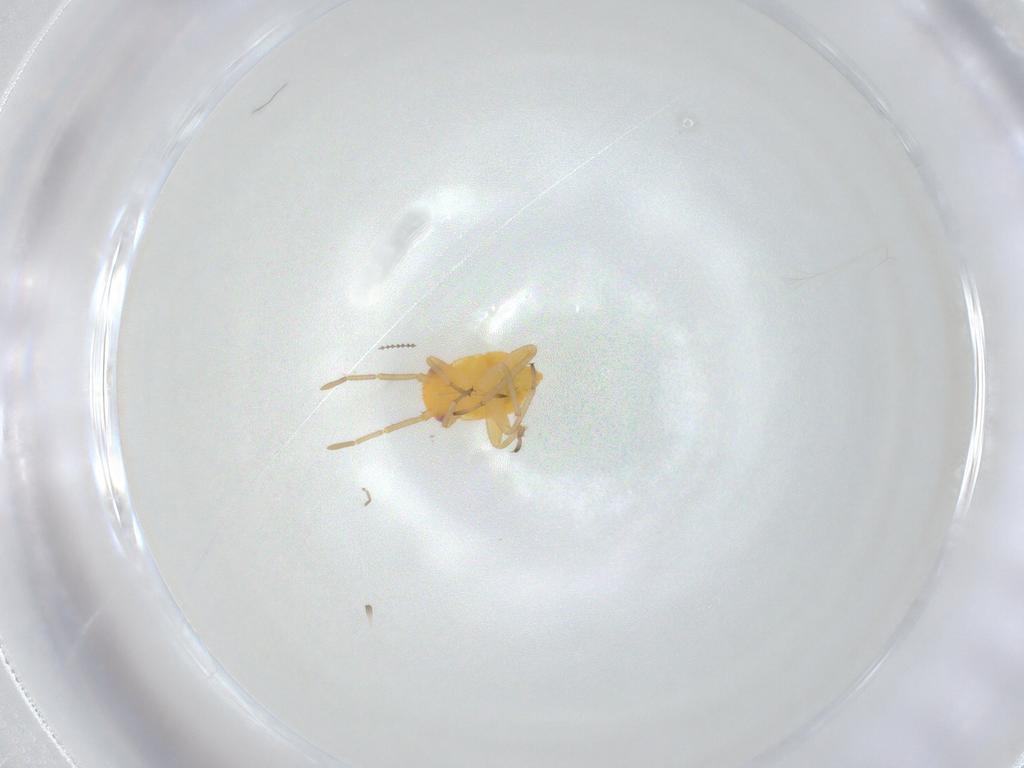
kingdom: Animalia
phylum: Arthropoda
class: Insecta
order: Hemiptera
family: Miridae
